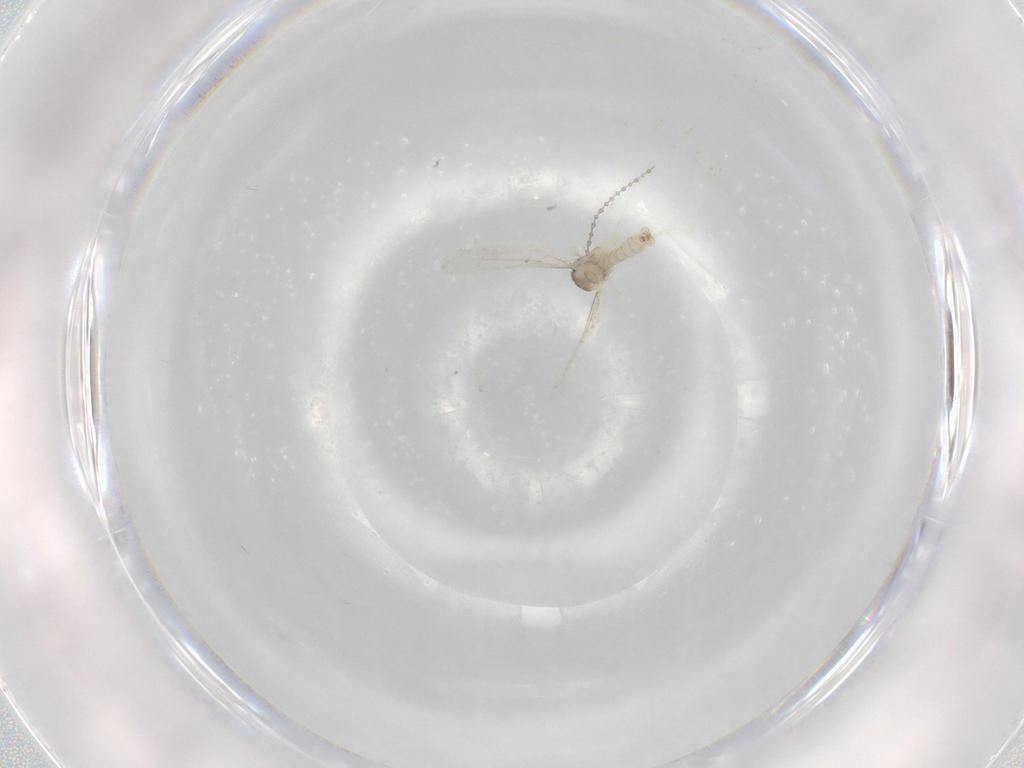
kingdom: Animalia
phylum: Arthropoda
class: Insecta
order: Diptera
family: Cecidomyiidae
